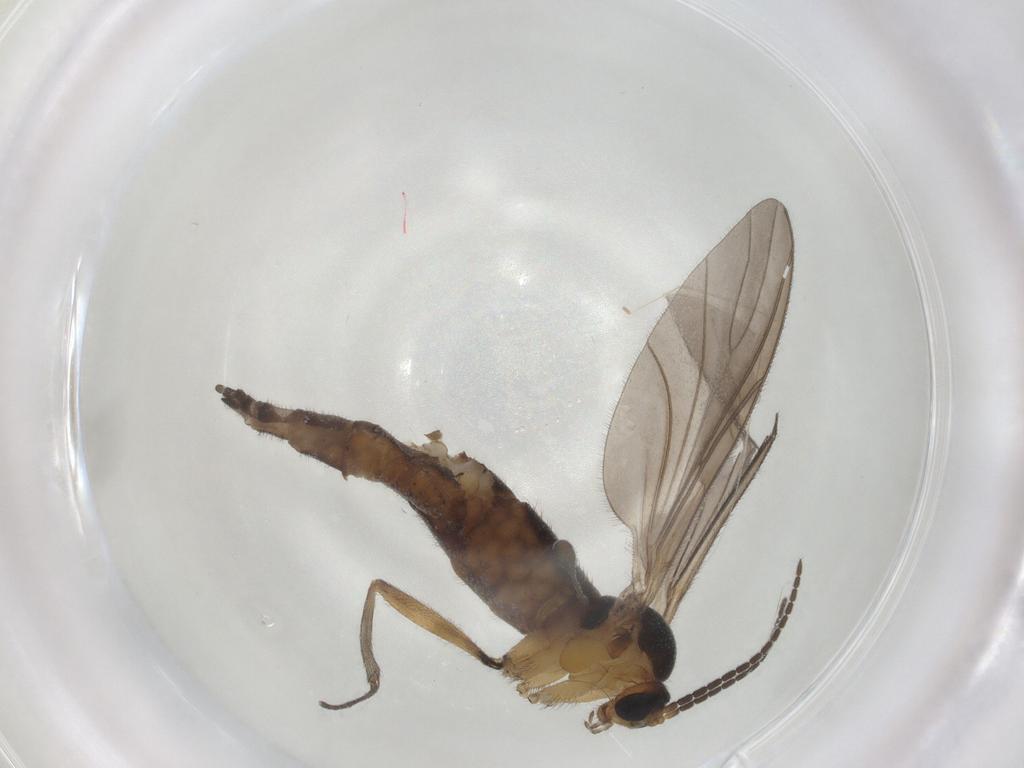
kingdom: Animalia
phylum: Arthropoda
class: Insecta
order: Diptera
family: Sciaridae
